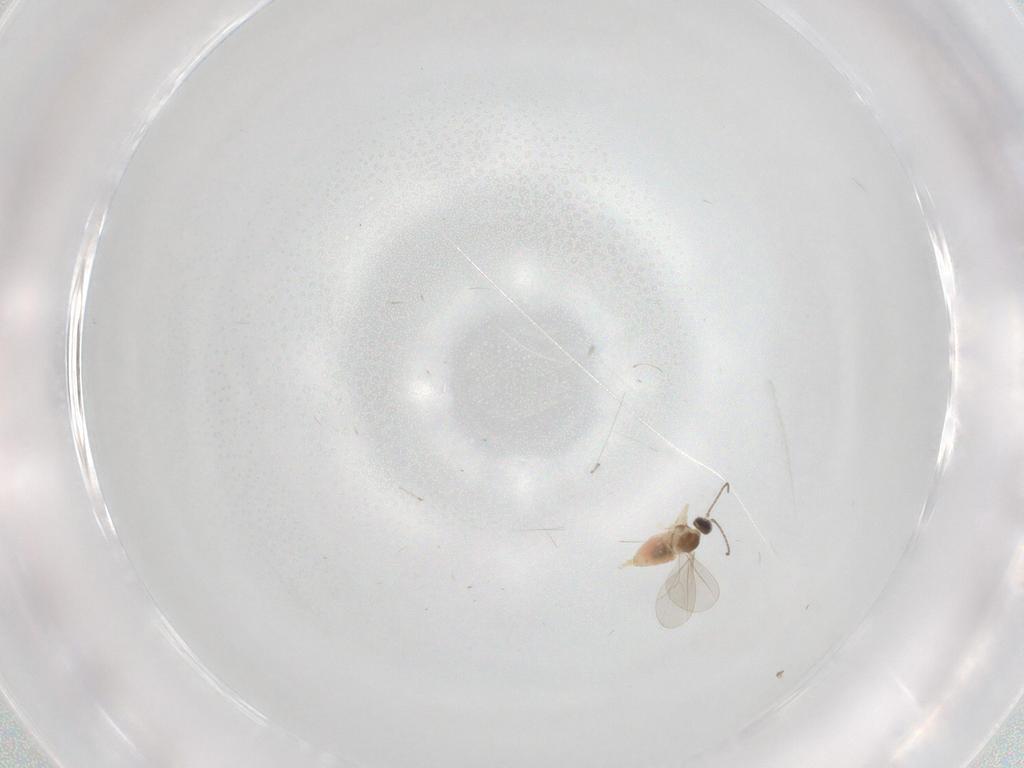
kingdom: Animalia
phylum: Arthropoda
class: Insecta
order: Diptera
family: Cecidomyiidae
